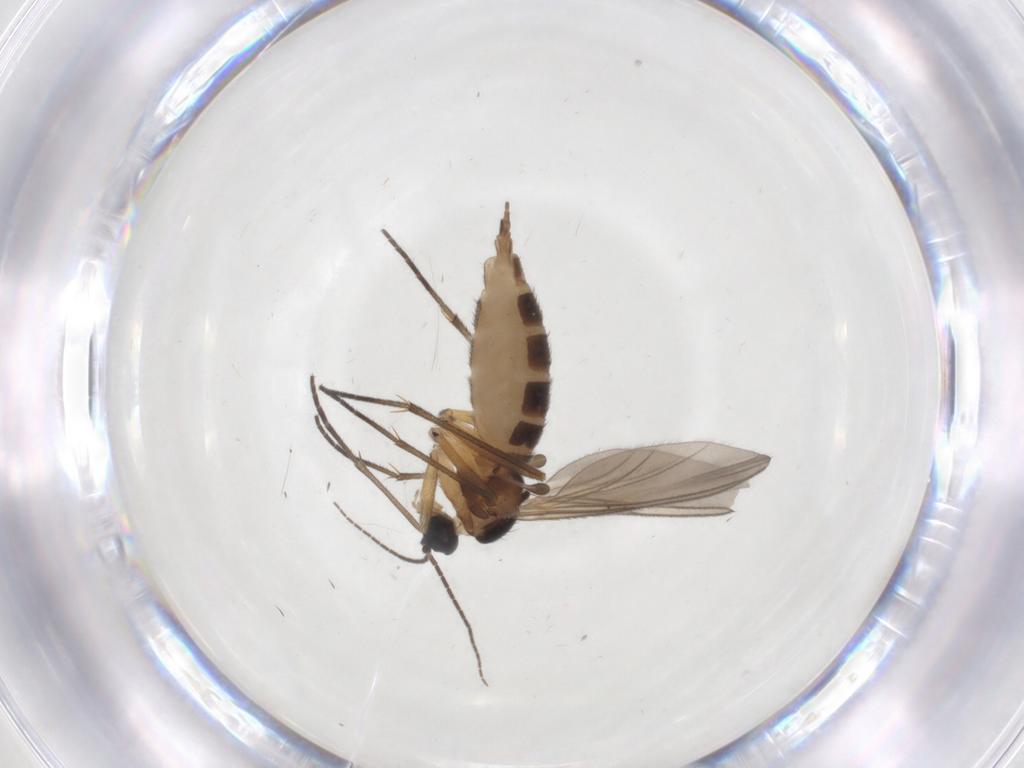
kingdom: Animalia
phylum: Arthropoda
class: Insecta
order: Diptera
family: Sciaridae
